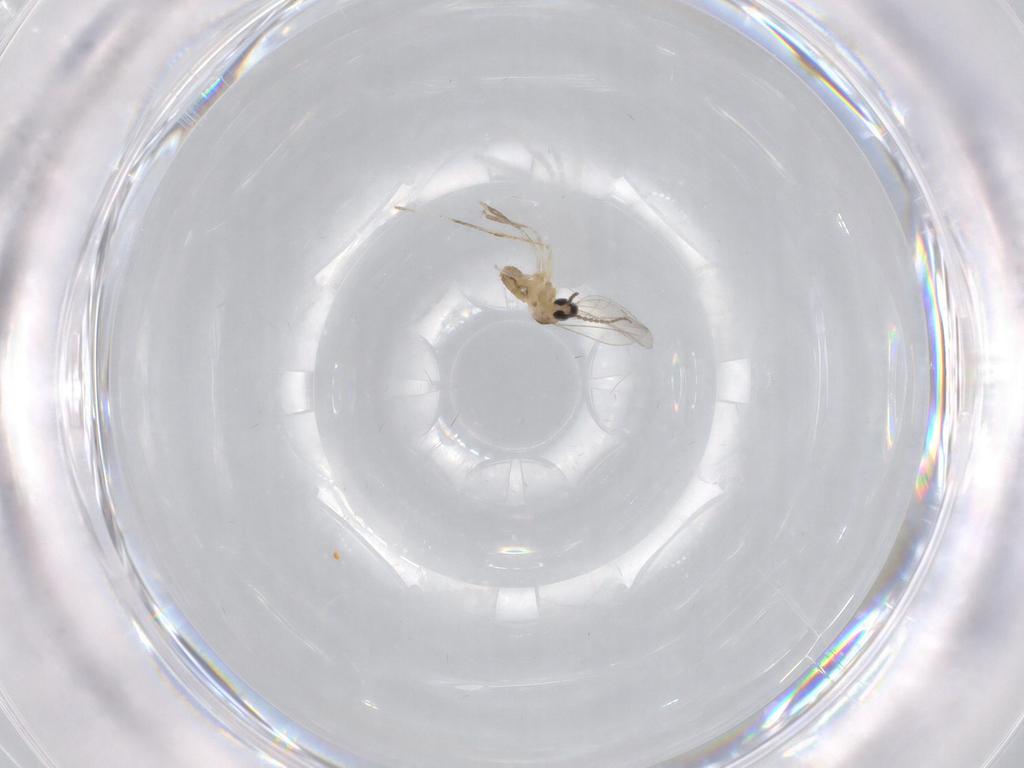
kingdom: Animalia
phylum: Arthropoda
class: Insecta
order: Diptera
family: Cecidomyiidae
